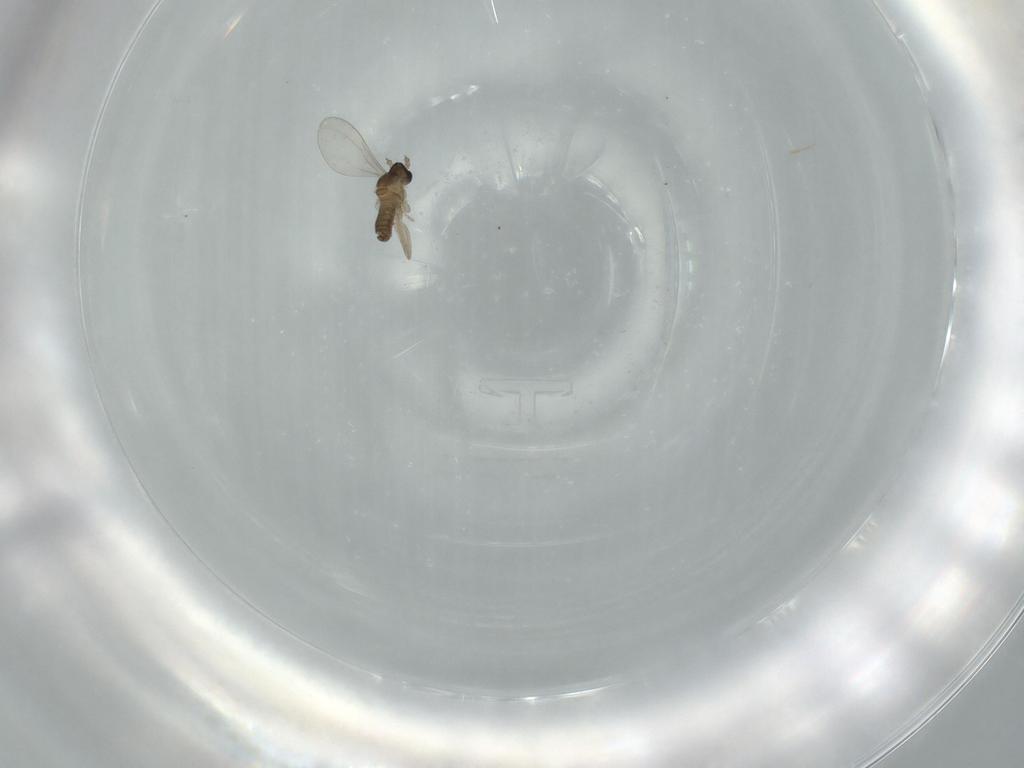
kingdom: Animalia
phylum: Arthropoda
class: Insecta
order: Diptera
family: Cecidomyiidae
